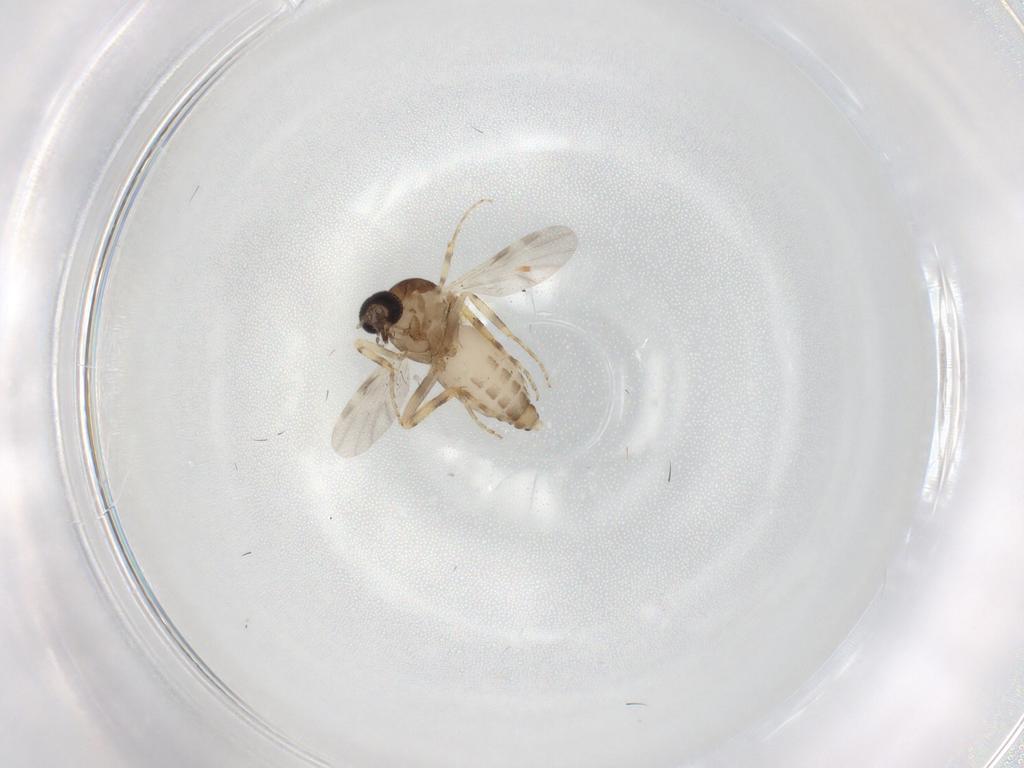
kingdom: Animalia
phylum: Arthropoda
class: Insecta
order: Diptera
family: Ceratopogonidae
